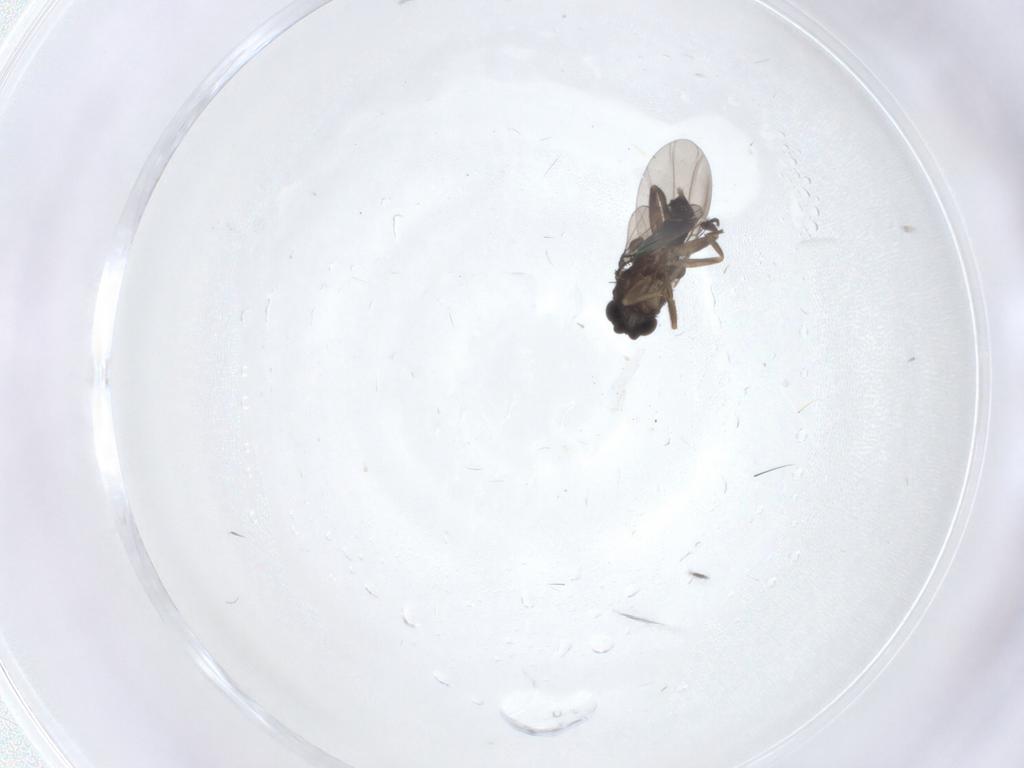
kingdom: Animalia
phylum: Arthropoda
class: Insecta
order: Diptera
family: Phoridae
